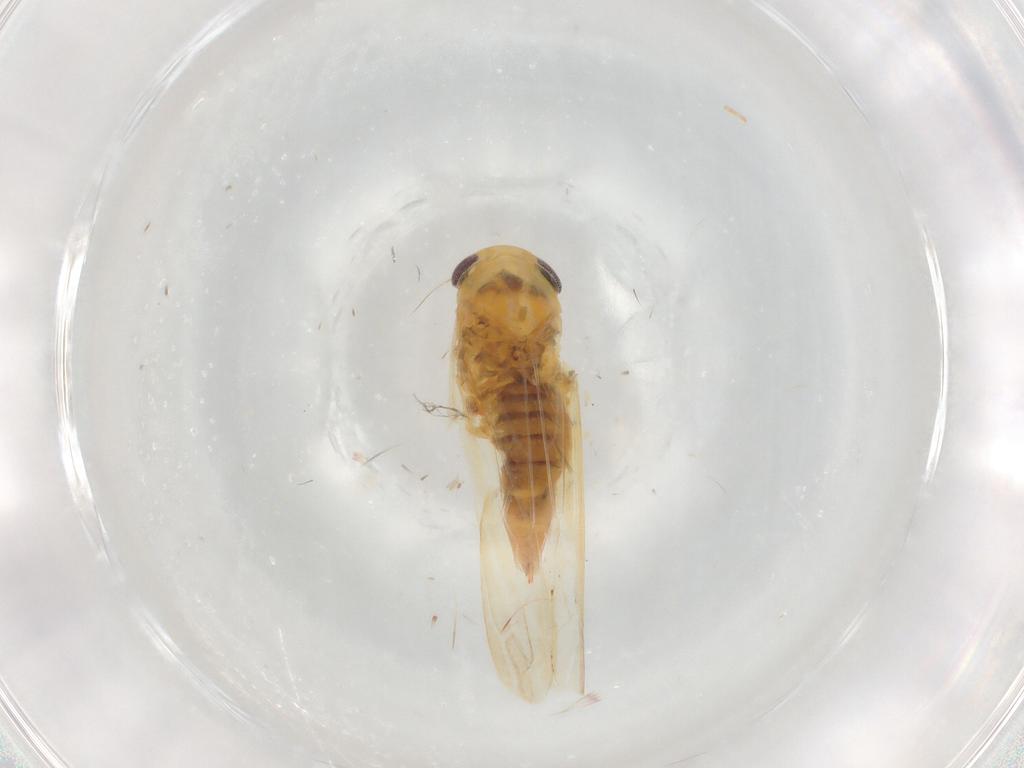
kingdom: Animalia
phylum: Arthropoda
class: Insecta
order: Hemiptera
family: Cicadellidae
